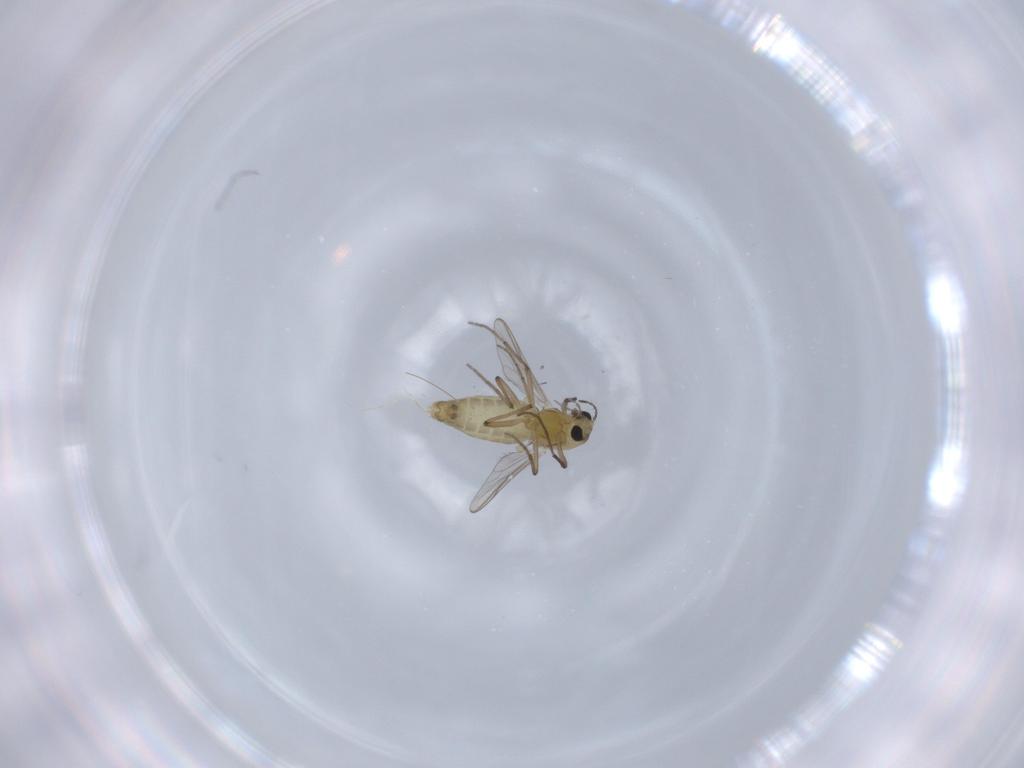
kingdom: Animalia
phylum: Arthropoda
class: Insecta
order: Diptera
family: Chironomidae
